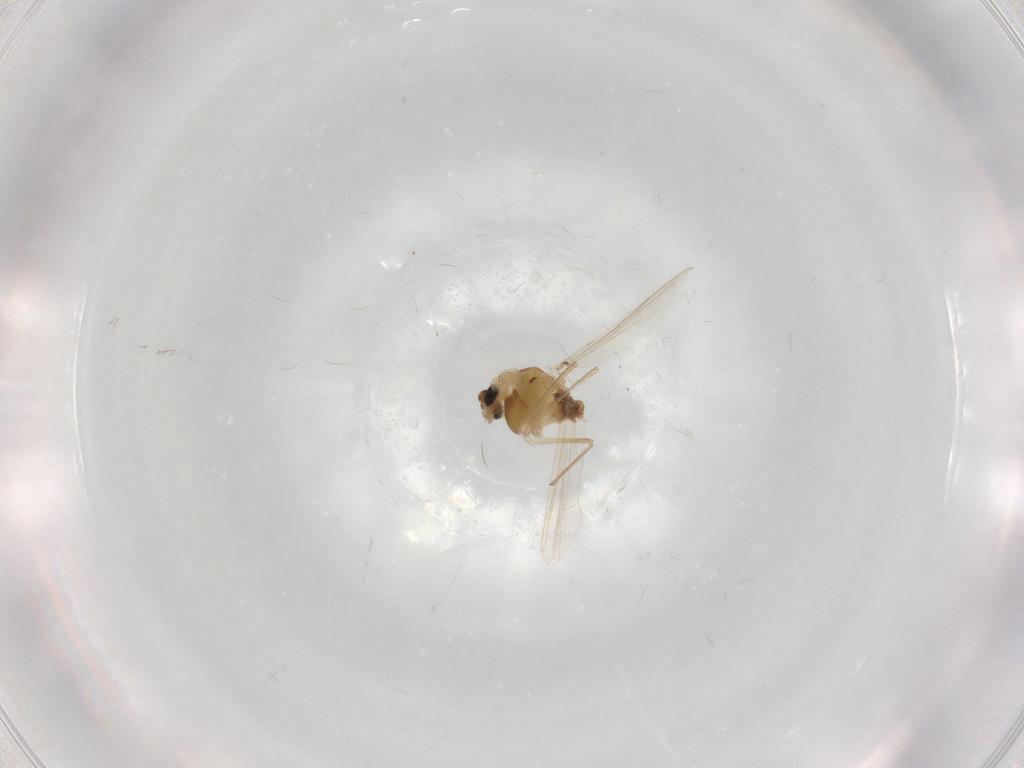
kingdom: Animalia
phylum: Arthropoda
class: Insecta
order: Diptera
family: Chironomidae
